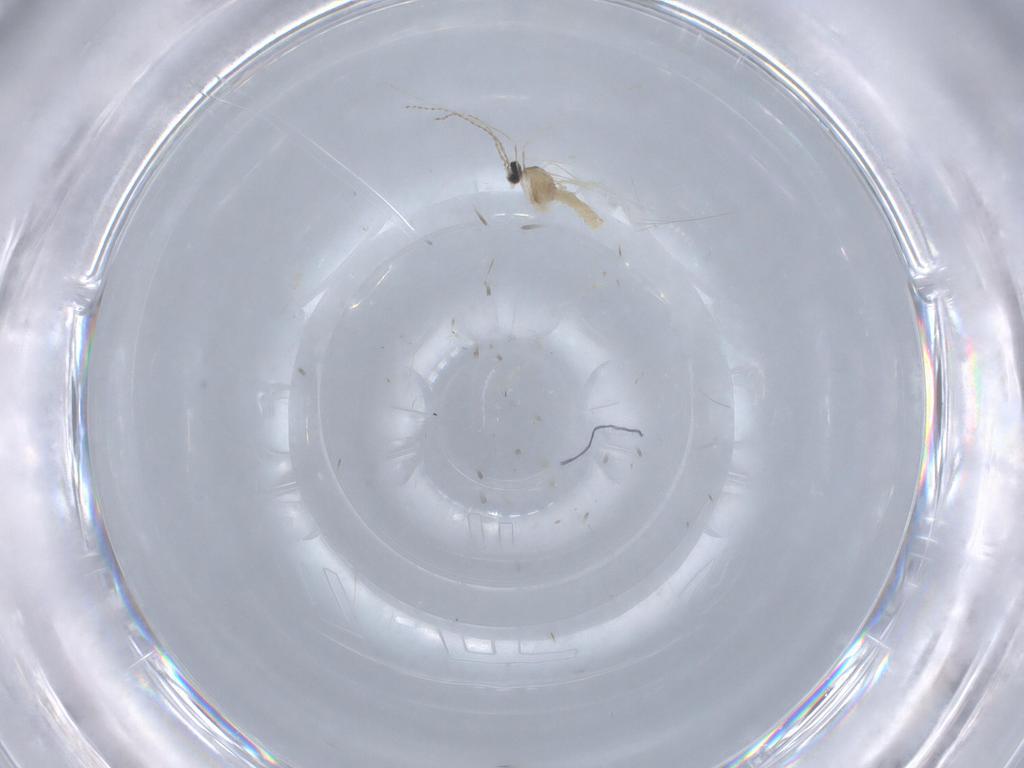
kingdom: Animalia
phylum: Arthropoda
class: Insecta
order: Diptera
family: Cecidomyiidae
